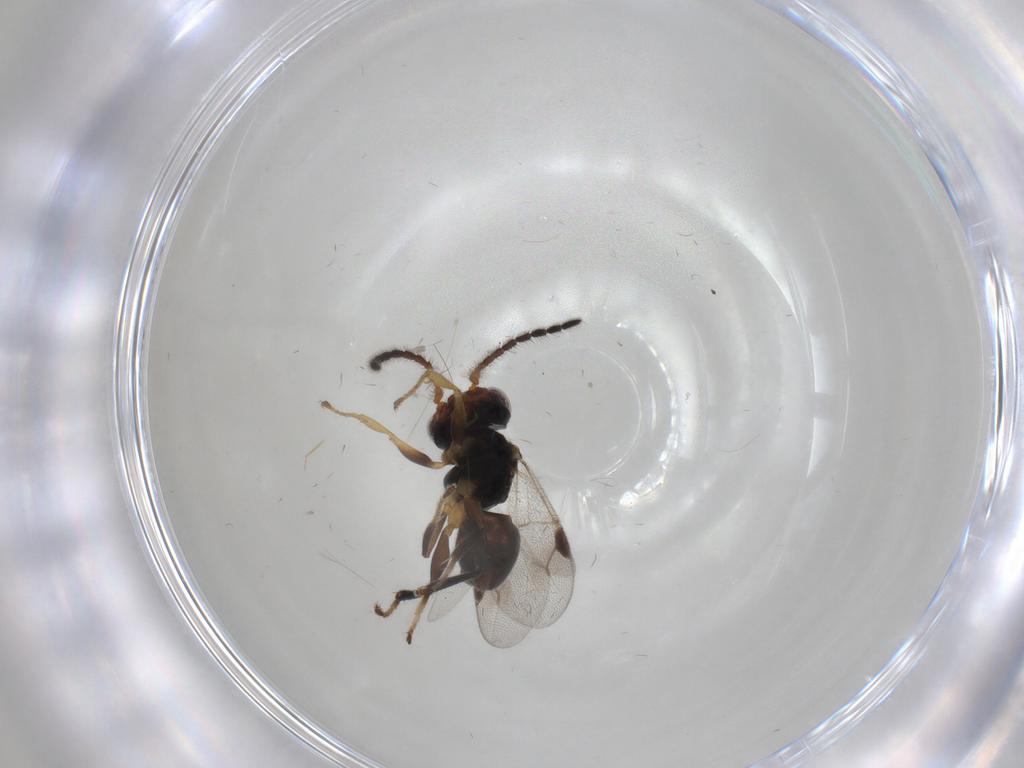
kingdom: Animalia
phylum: Arthropoda
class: Insecta
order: Hymenoptera
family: Dryinidae
